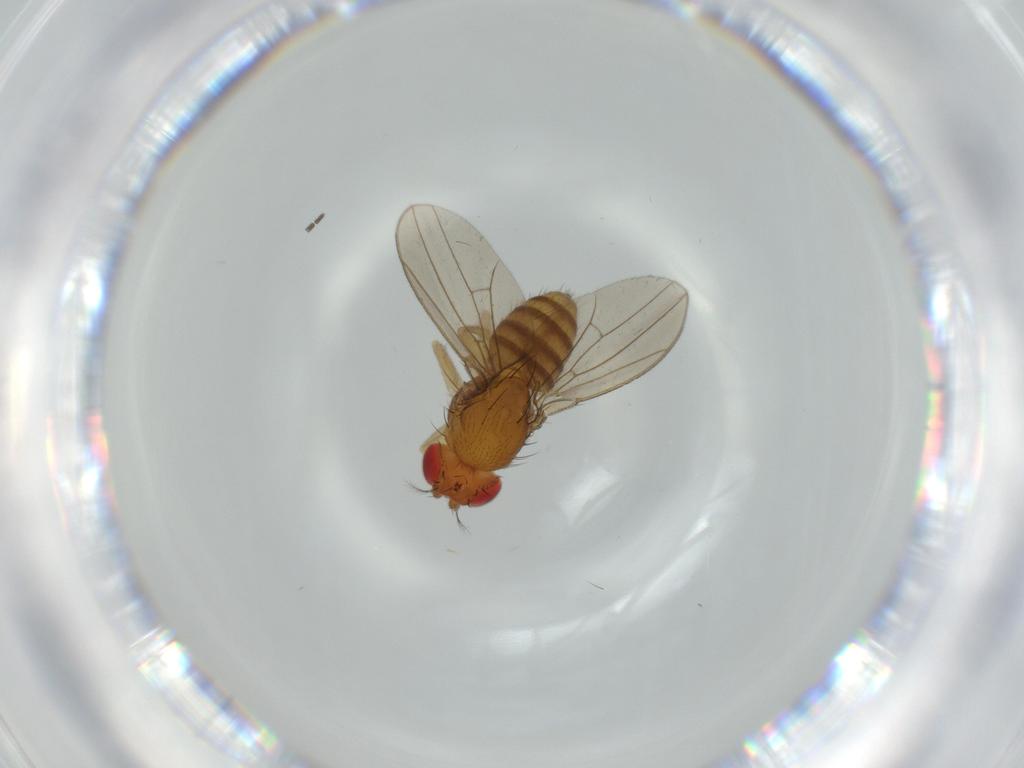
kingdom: Animalia
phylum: Arthropoda
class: Insecta
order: Diptera
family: Drosophilidae
